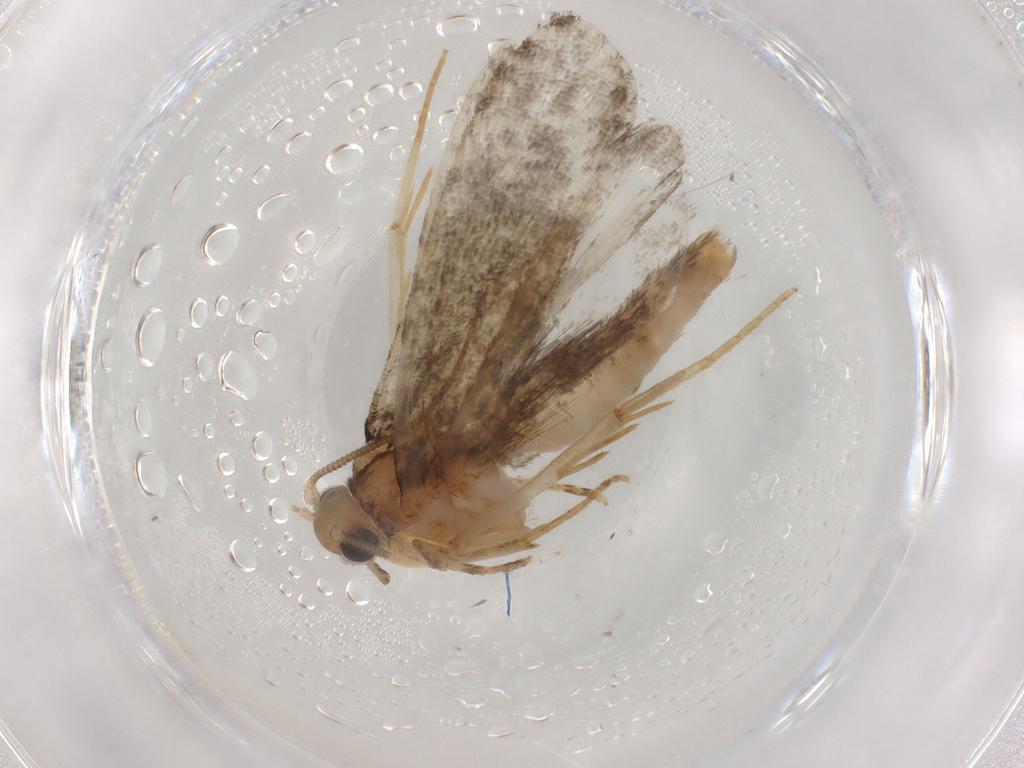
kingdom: Animalia
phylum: Arthropoda
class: Insecta
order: Lepidoptera
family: Tineidae
